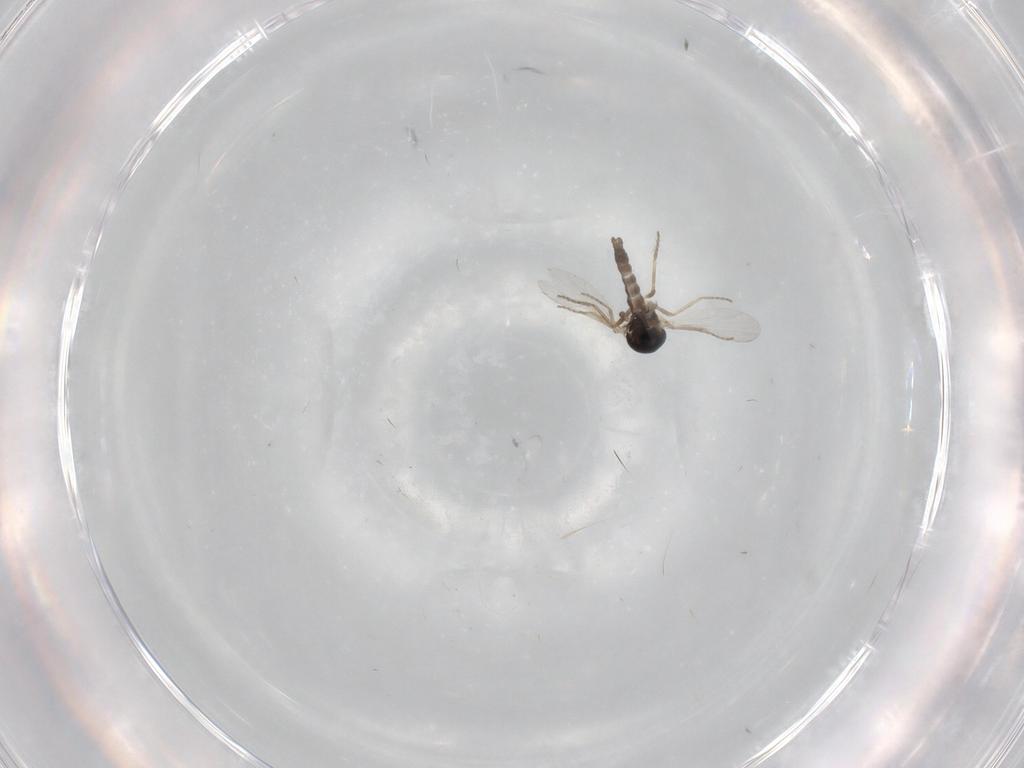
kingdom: Animalia
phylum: Arthropoda
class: Insecta
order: Diptera
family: Ceratopogonidae
